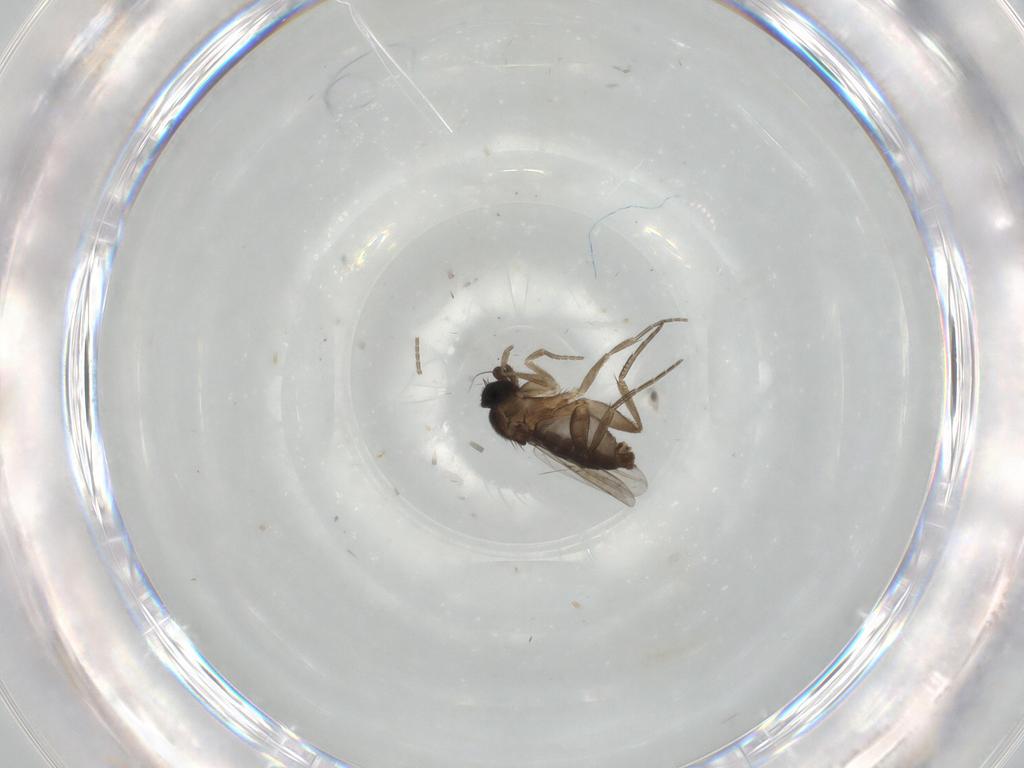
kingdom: Animalia
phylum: Arthropoda
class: Insecta
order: Diptera
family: Phoridae
